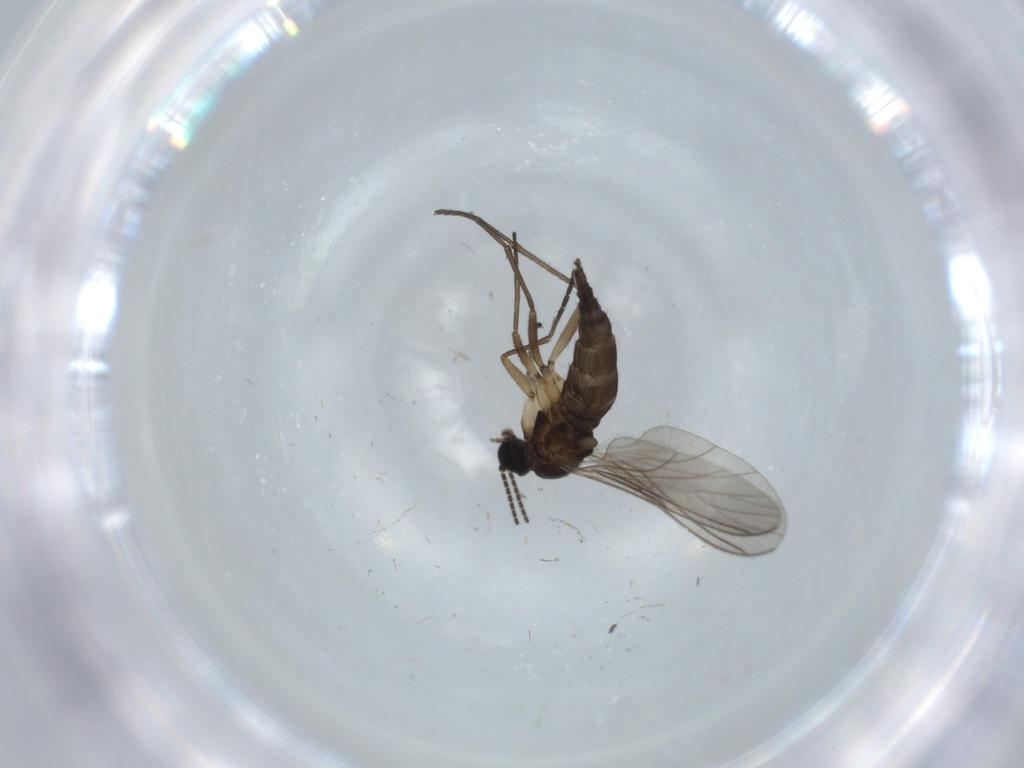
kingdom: Animalia
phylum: Arthropoda
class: Insecta
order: Diptera
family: Sciaridae
